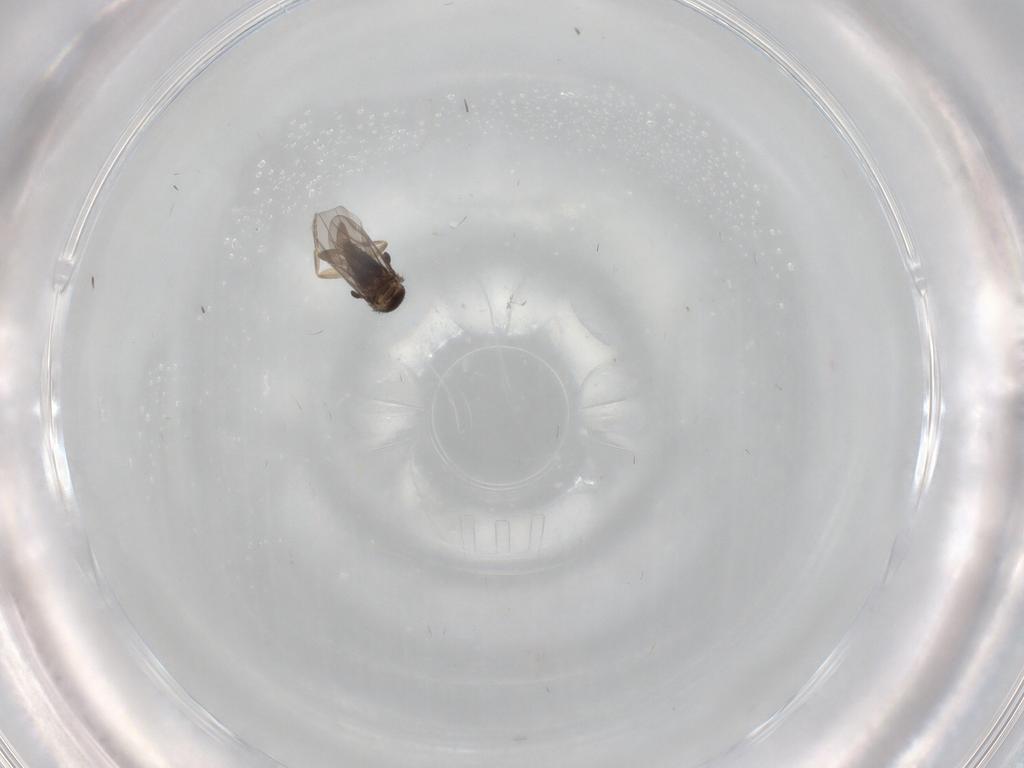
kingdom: Animalia
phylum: Arthropoda
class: Insecta
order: Diptera
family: Phoridae
